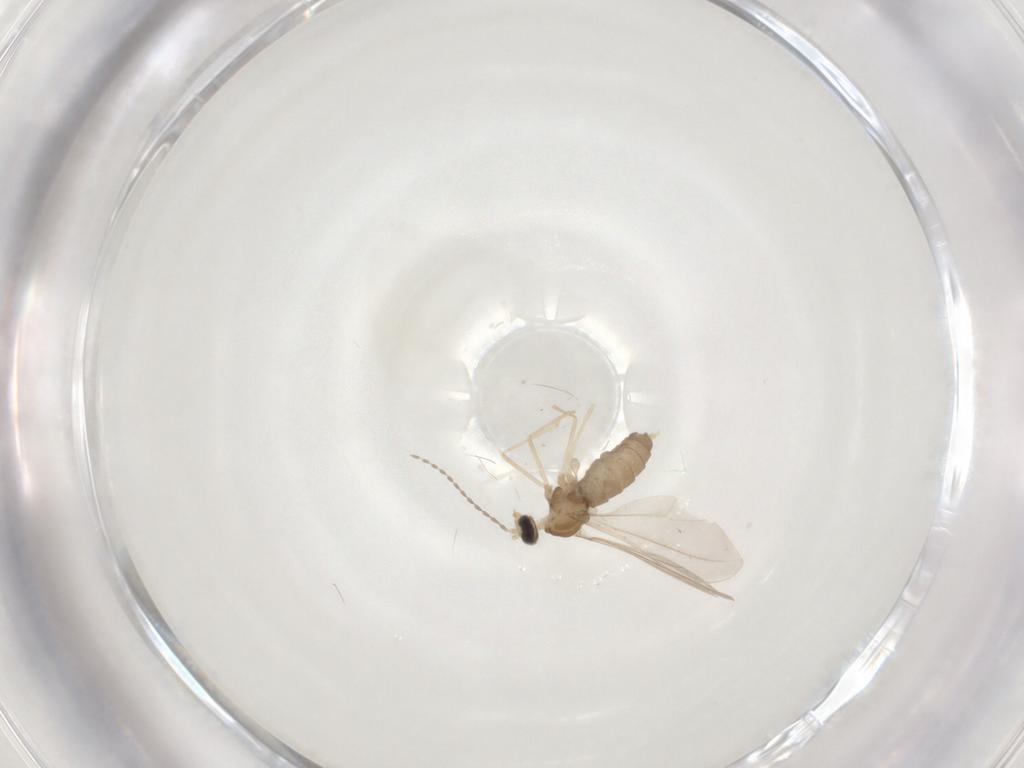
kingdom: Animalia
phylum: Arthropoda
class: Insecta
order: Diptera
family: Cecidomyiidae
